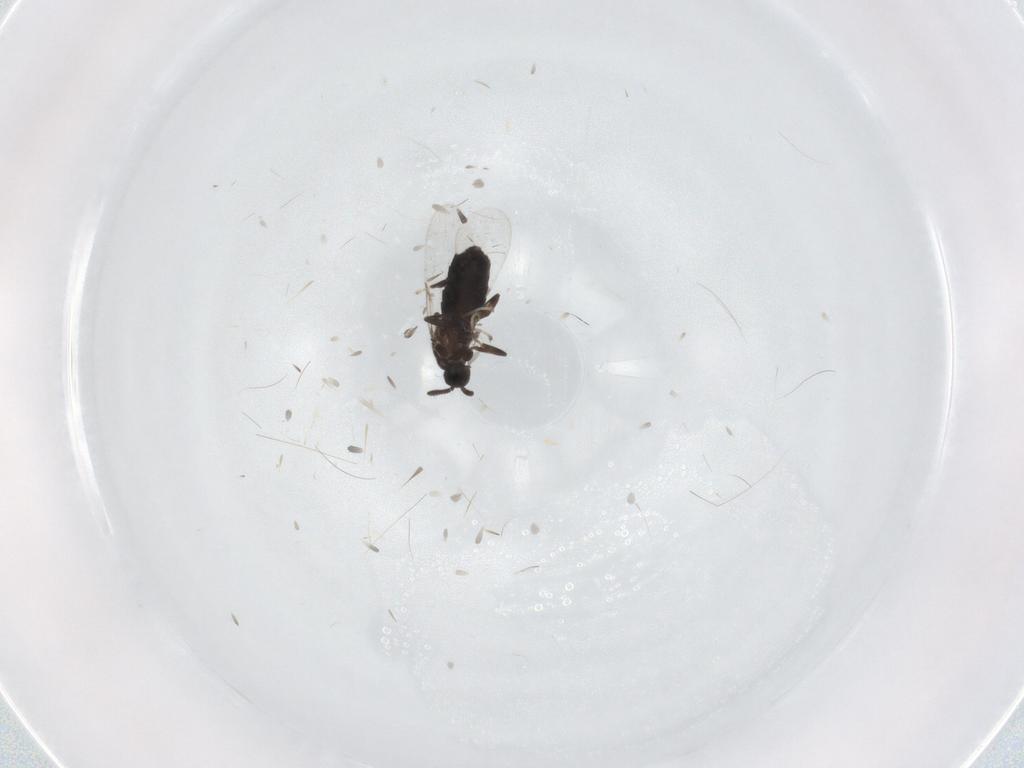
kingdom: Animalia
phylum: Arthropoda
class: Insecta
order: Diptera
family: Scatopsidae
